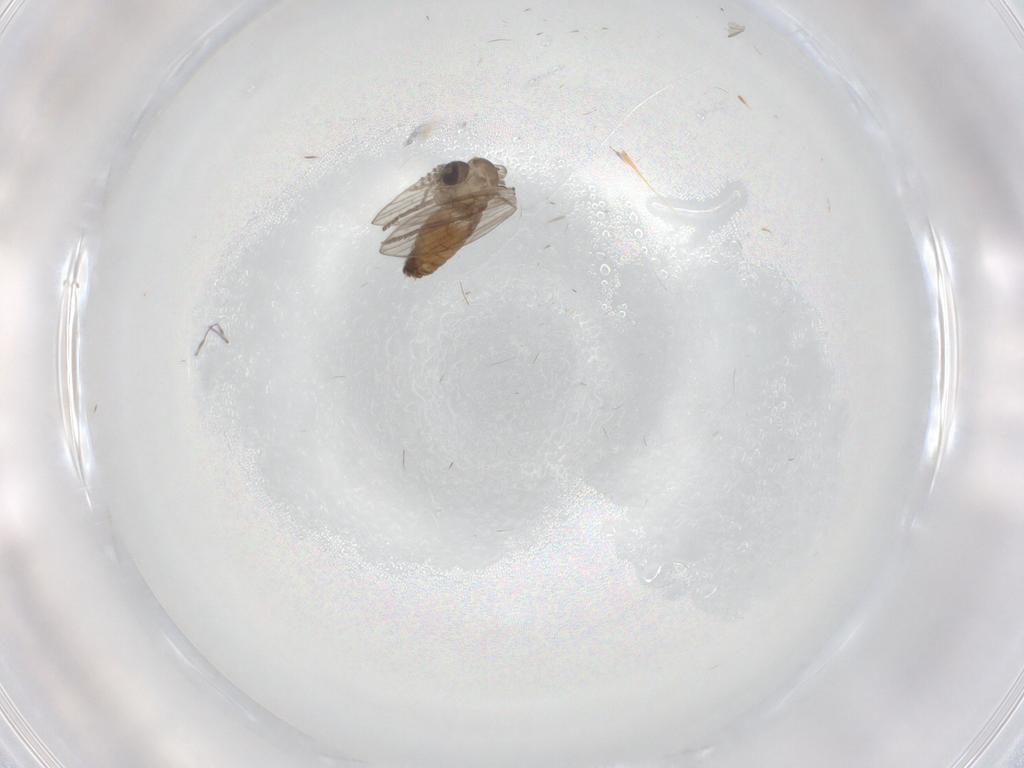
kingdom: Animalia
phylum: Arthropoda
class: Insecta
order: Diptera
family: Psychodidae
